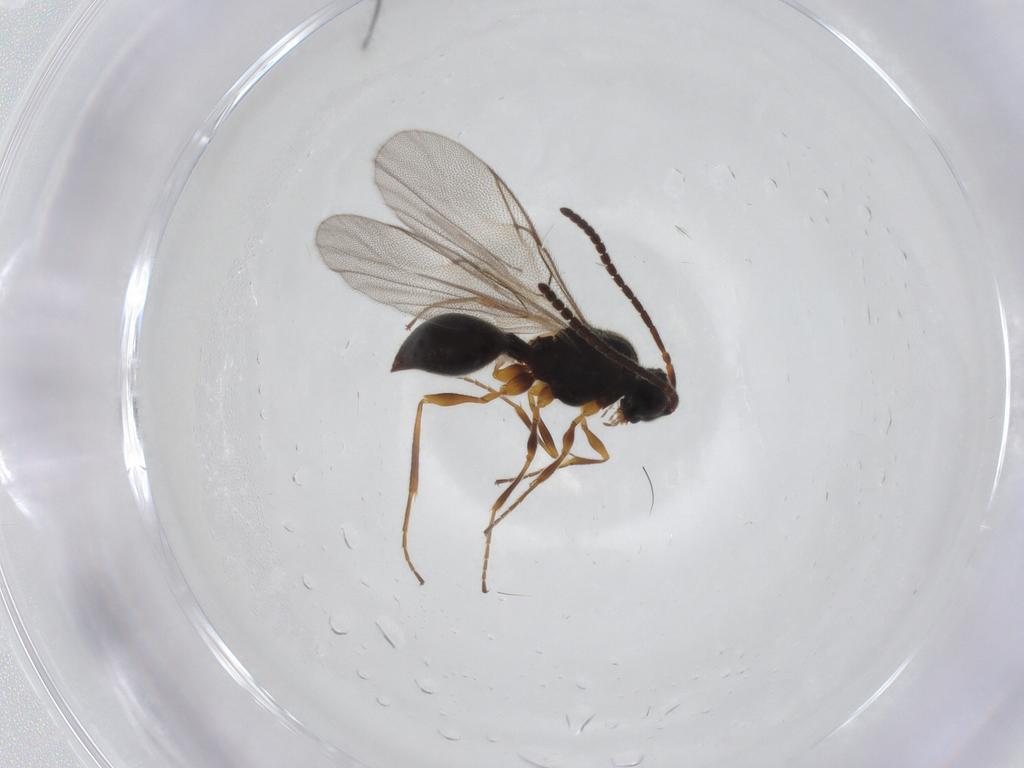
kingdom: Animalia
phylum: Arthropoda
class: Insecta
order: Hymenoptera
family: Diapriidae
